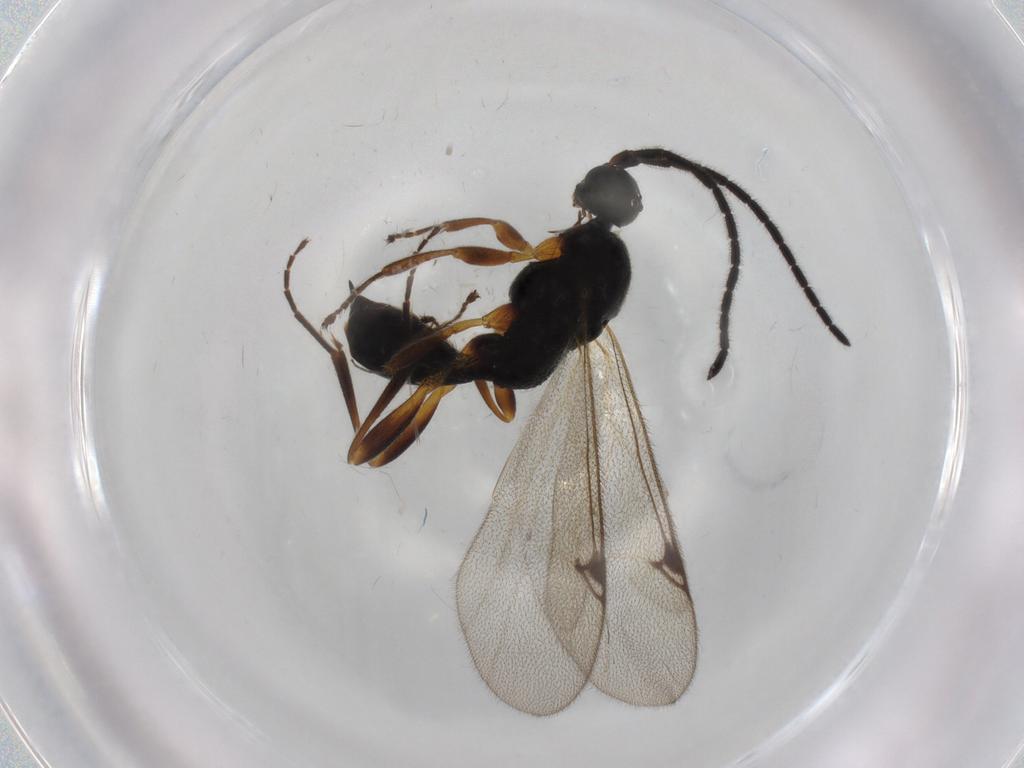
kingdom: Animalia
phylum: Arthropoda
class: Insecta
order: Hymenoptera
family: Proctotrupidae
